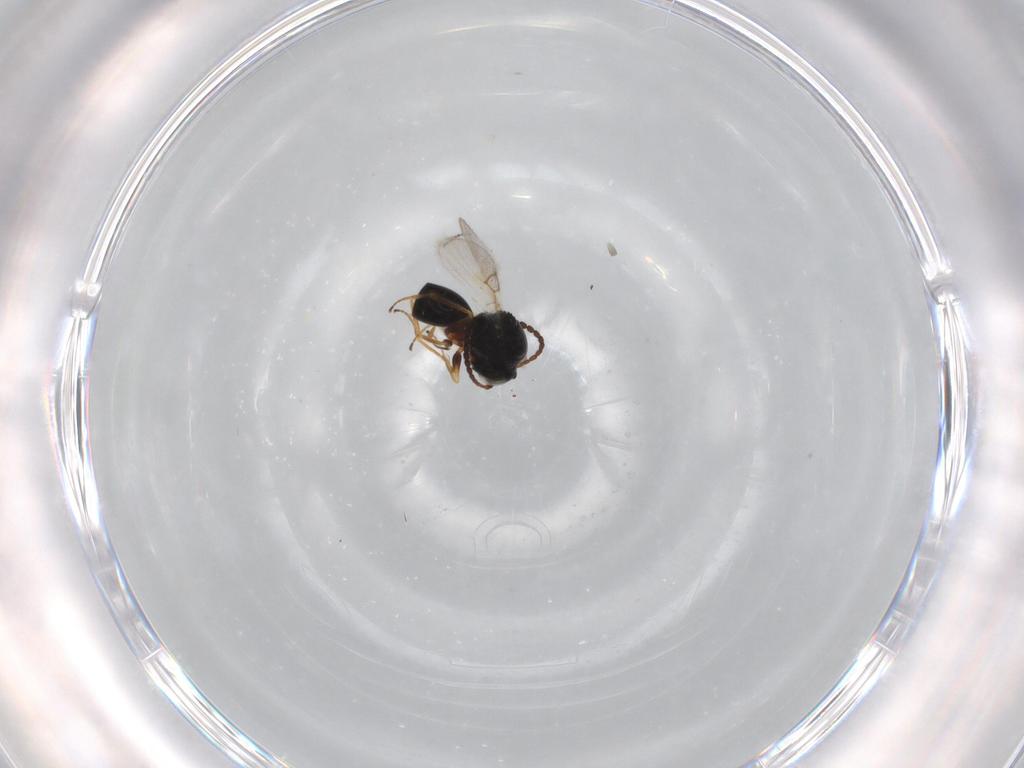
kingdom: Animalia
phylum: Arthropoda
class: Insecta
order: Hymenoptera
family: Figitidae
